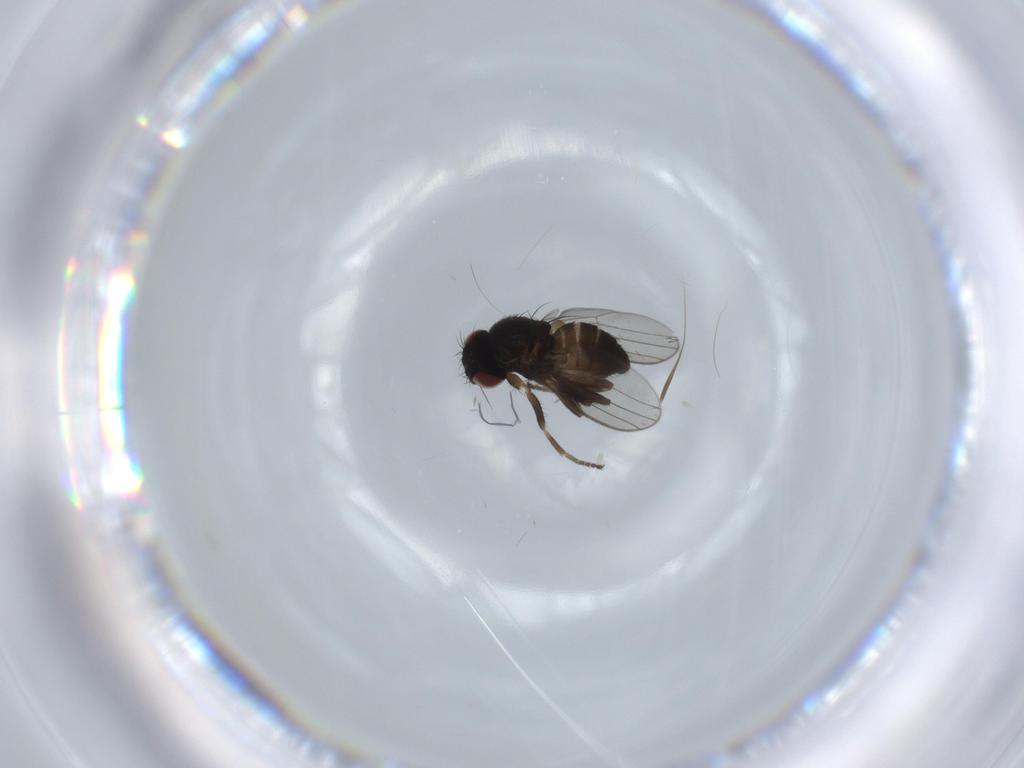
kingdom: Animalia
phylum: Arthropoda
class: Insecta
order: Diptera
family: Milichiidae
